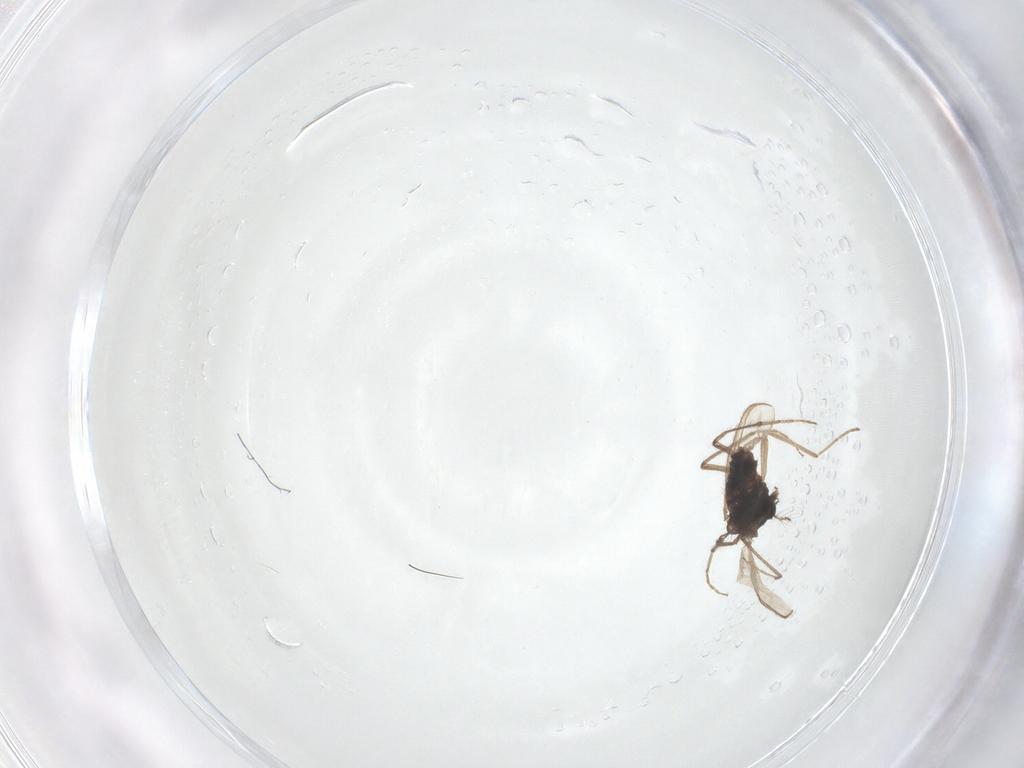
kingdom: Animalia
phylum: Arthropoda
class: Insecta
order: Diptera
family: Chironomidae
